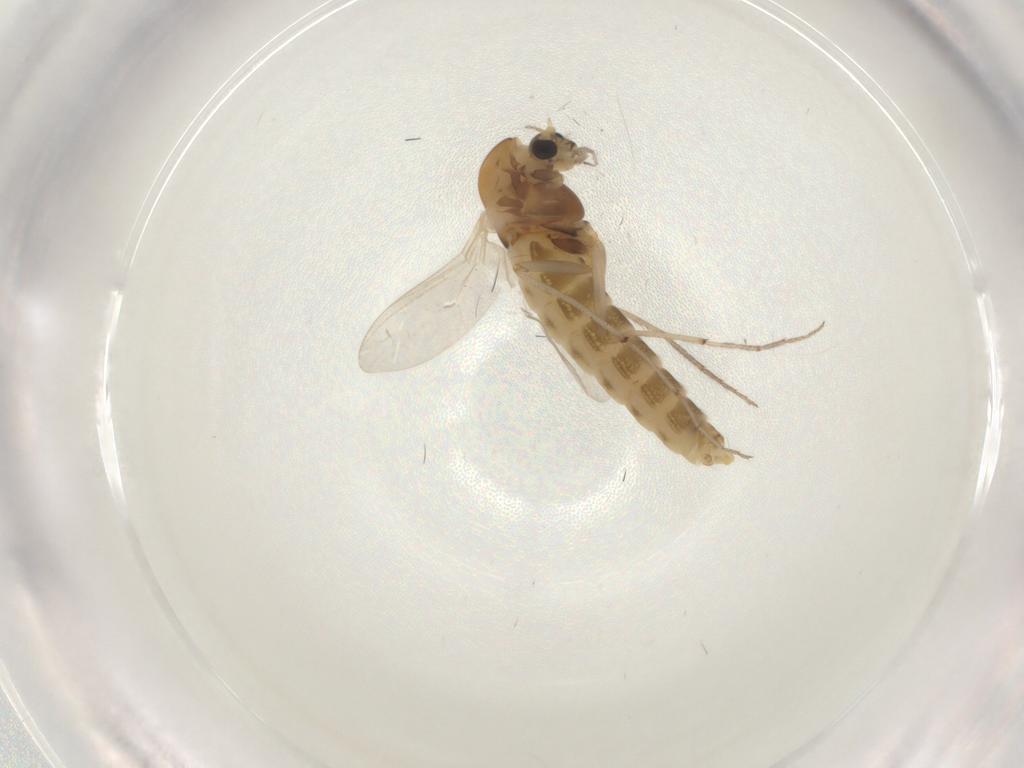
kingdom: Animalia
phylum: Arthropoda
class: Insecta
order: Diptera
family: Chironomidae
